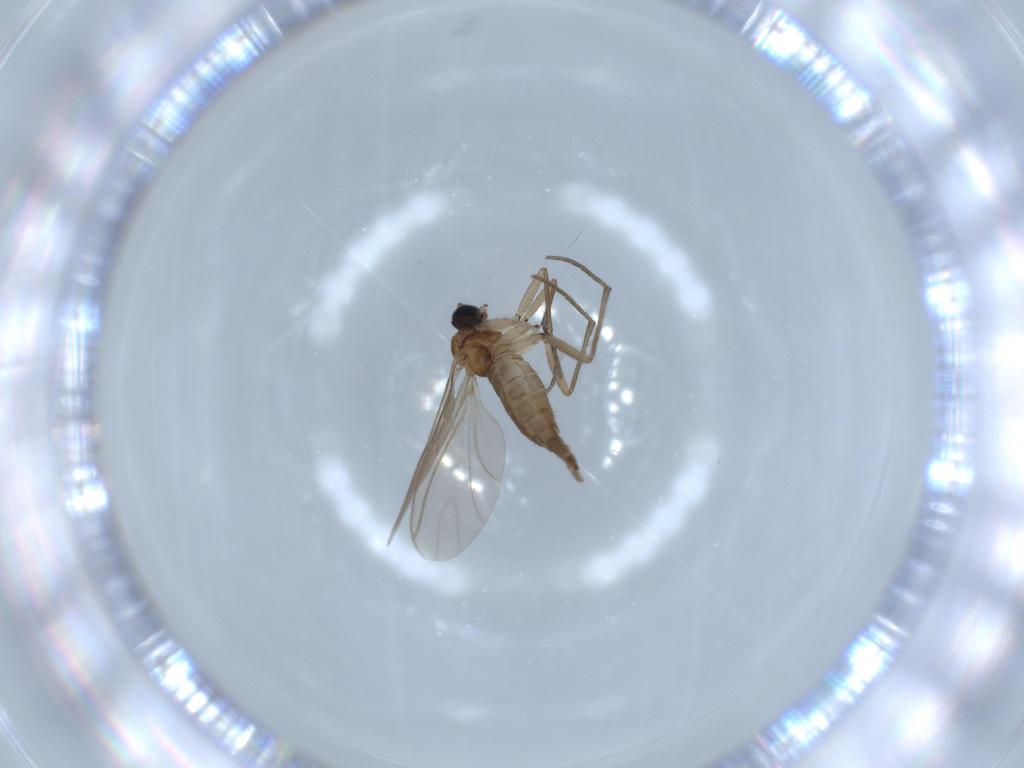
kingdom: Animalia
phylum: Arthropoda
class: Insecta
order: Diptera
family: Sciaridae
